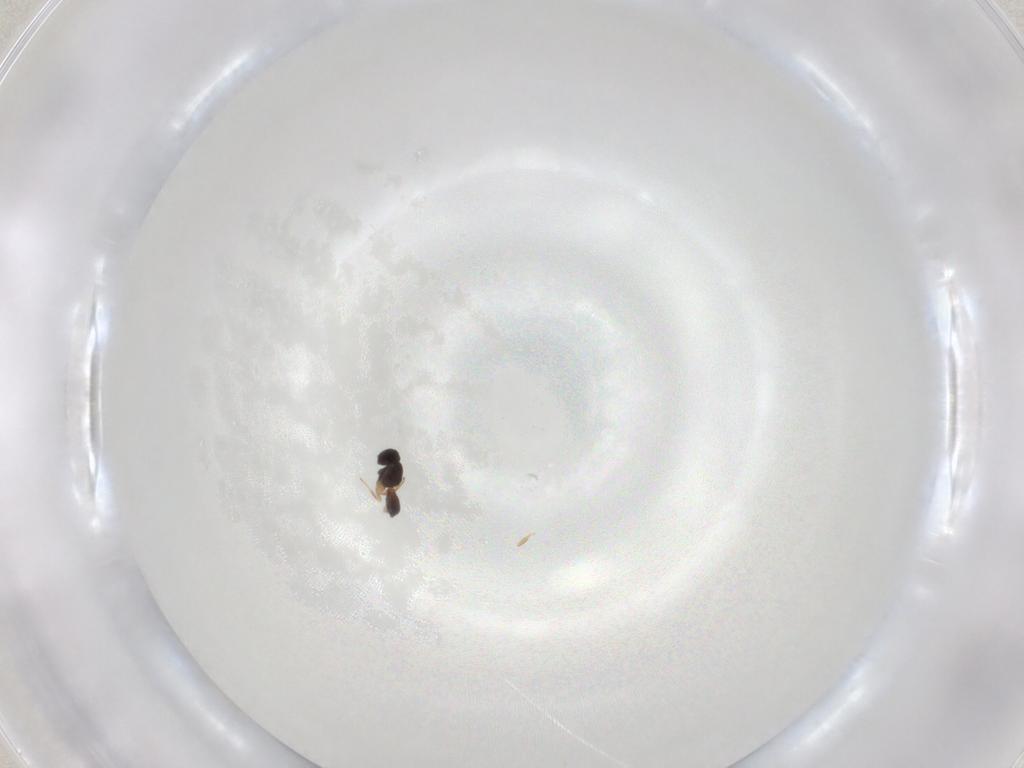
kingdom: Animalia
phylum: Arthropoda
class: Insecta
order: Hymenoptera
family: Scelionidae
